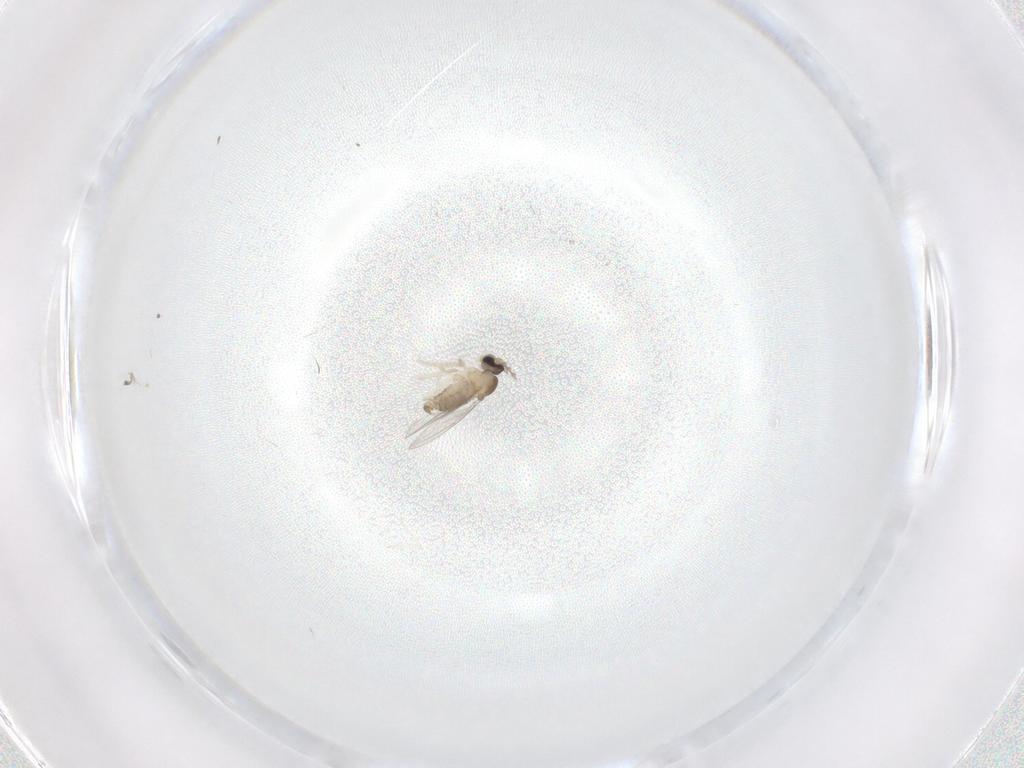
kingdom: Animalia
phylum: Arthropoda
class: Insecta
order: Diptera
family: Cecidomyiidae
